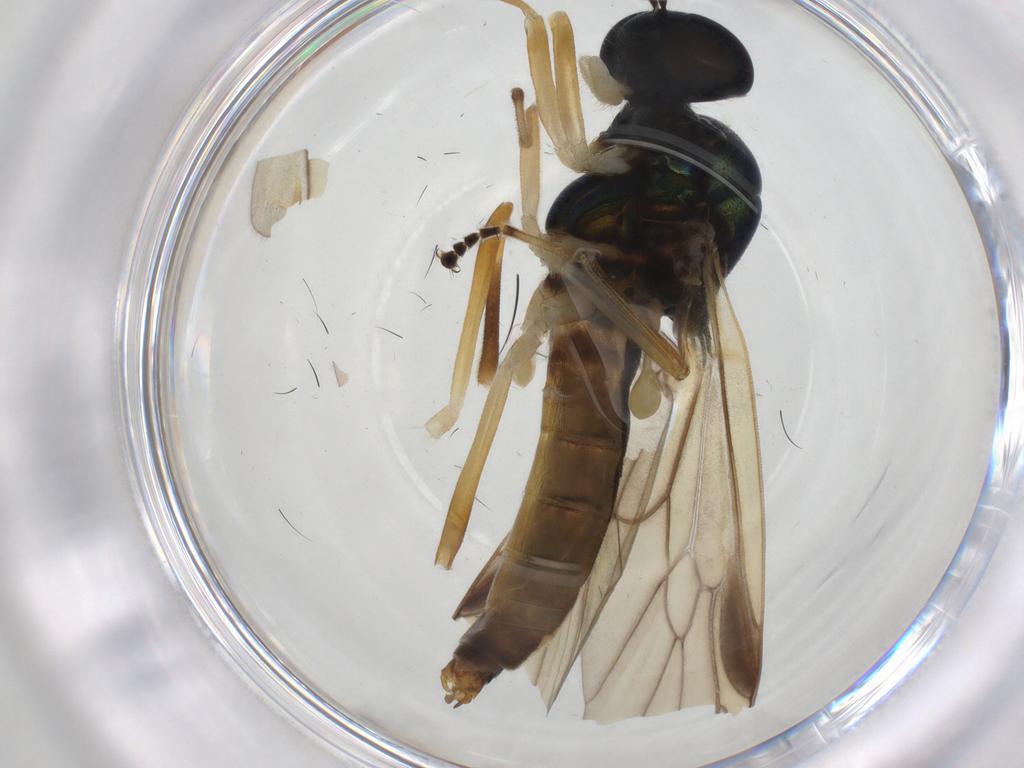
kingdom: Animalia
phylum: Arthropoda
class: Insecta
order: Diptera
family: Stratiomyidae
